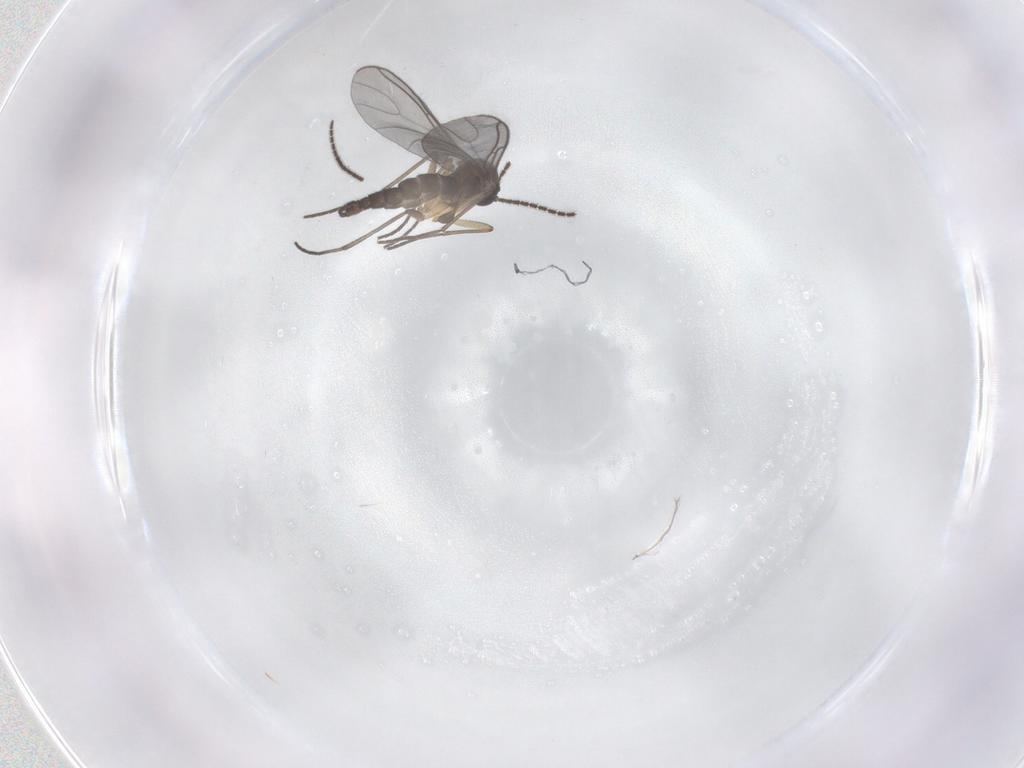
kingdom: Animalia
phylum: Arthropoda
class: Insecta
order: Diptera
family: Sciaridae
